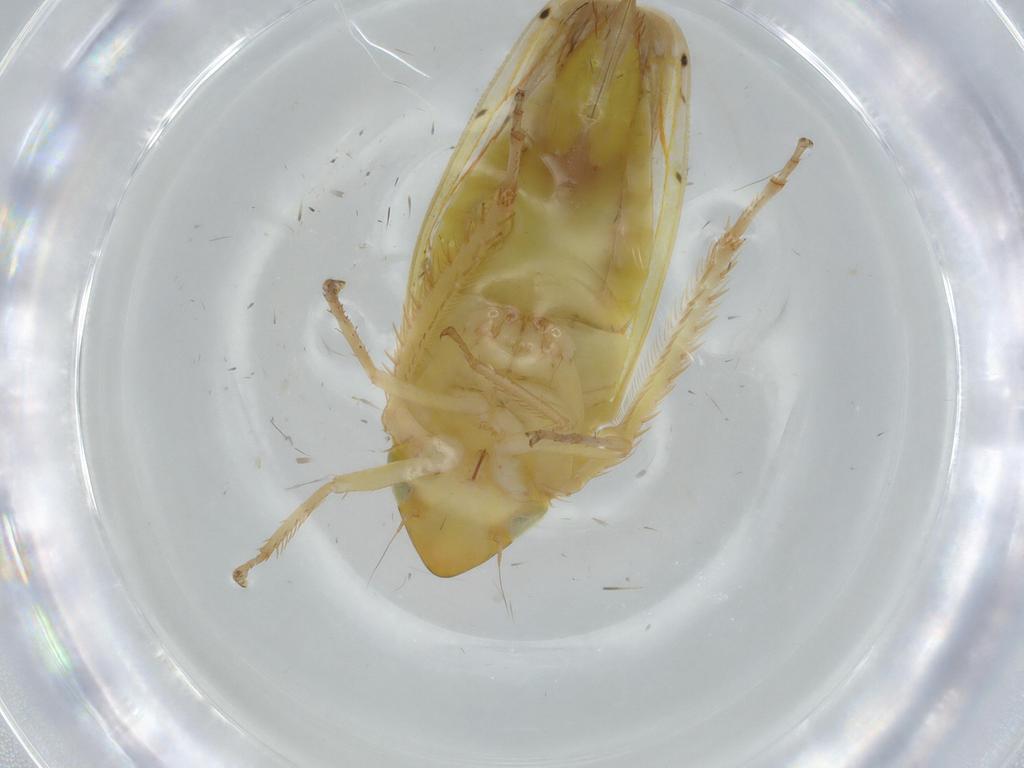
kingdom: Animalia
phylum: Arthropoda
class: Insecta
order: Hemiptera
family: Cicadellidae
